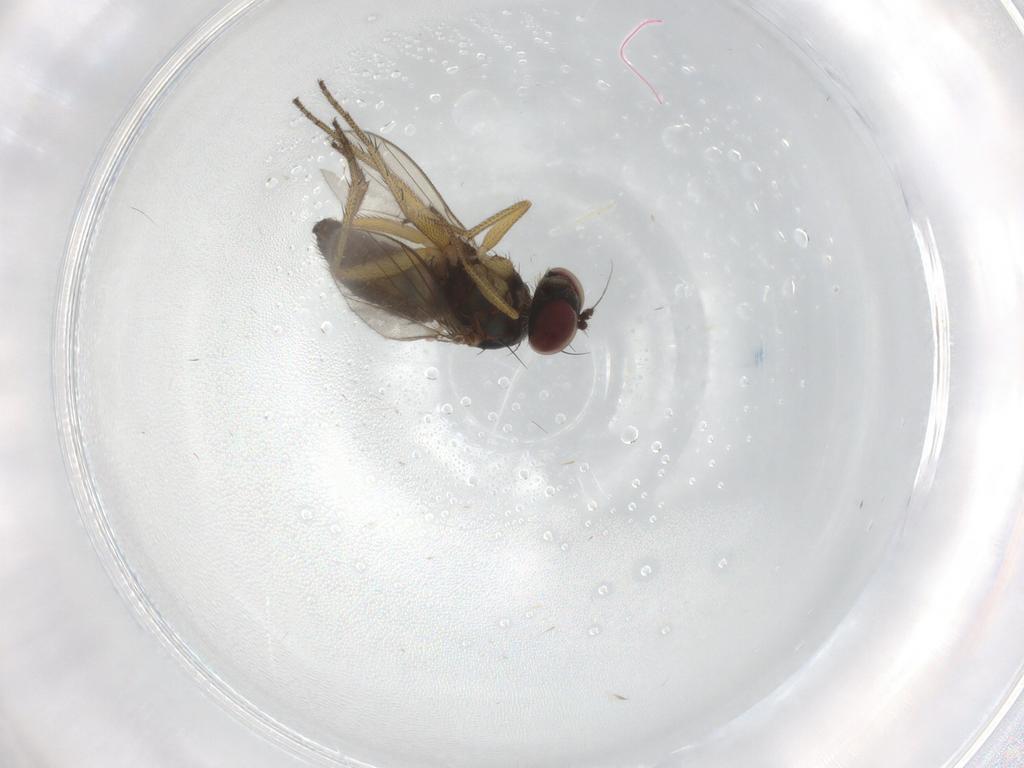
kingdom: Animalia
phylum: Arthropoda
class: Insecta
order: Diptera
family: Dolichopodidae
